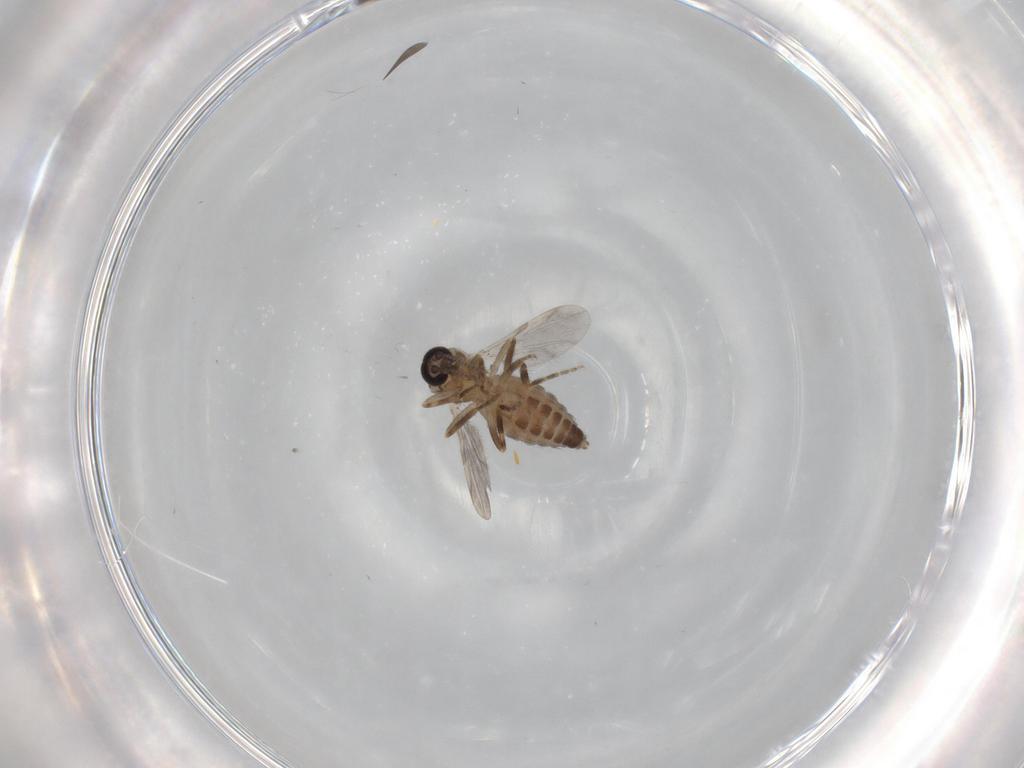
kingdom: Animalia
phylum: Arthropoda
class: Insecta
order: Diptera
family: Ceratopogonidae
